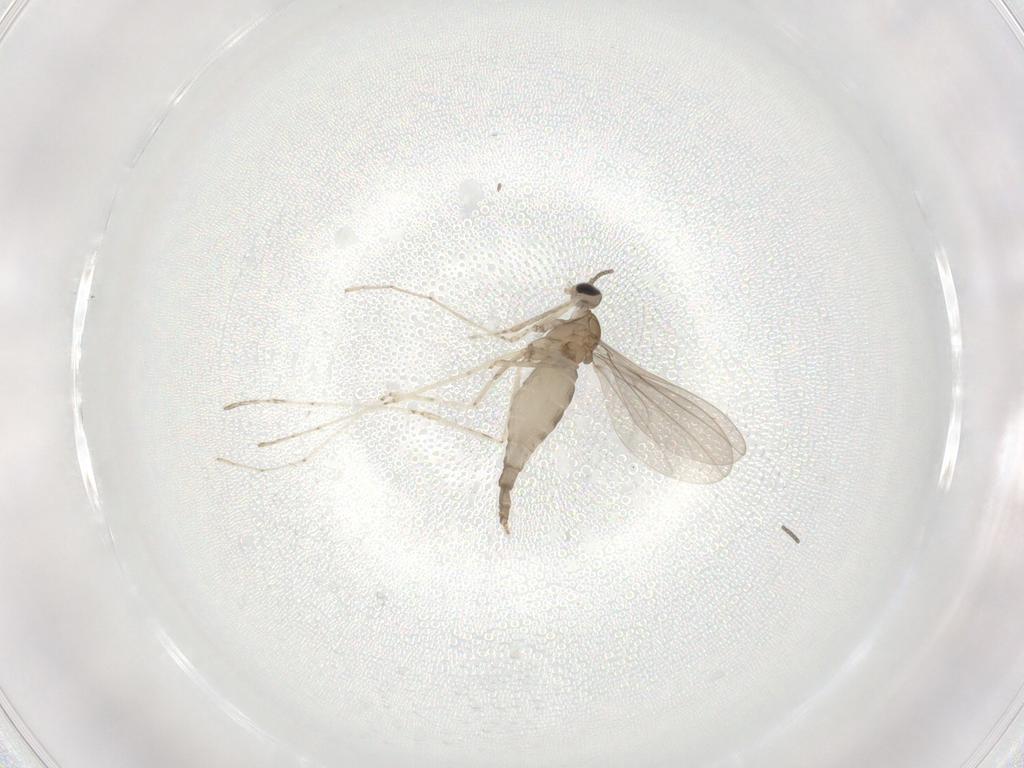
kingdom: Animalia
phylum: Arthropoda
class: Insecta
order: Diptera
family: Cecidomyiidae
